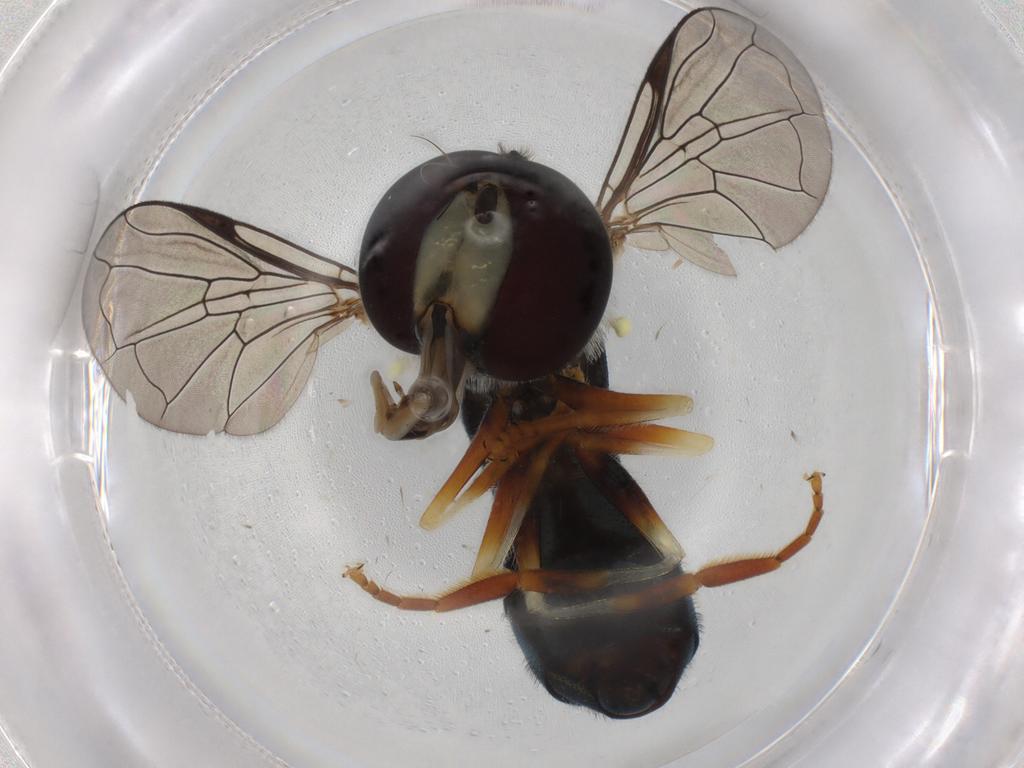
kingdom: Animalia
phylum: Arthropoda
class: Insecta
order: Diptera
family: Syrphidae
